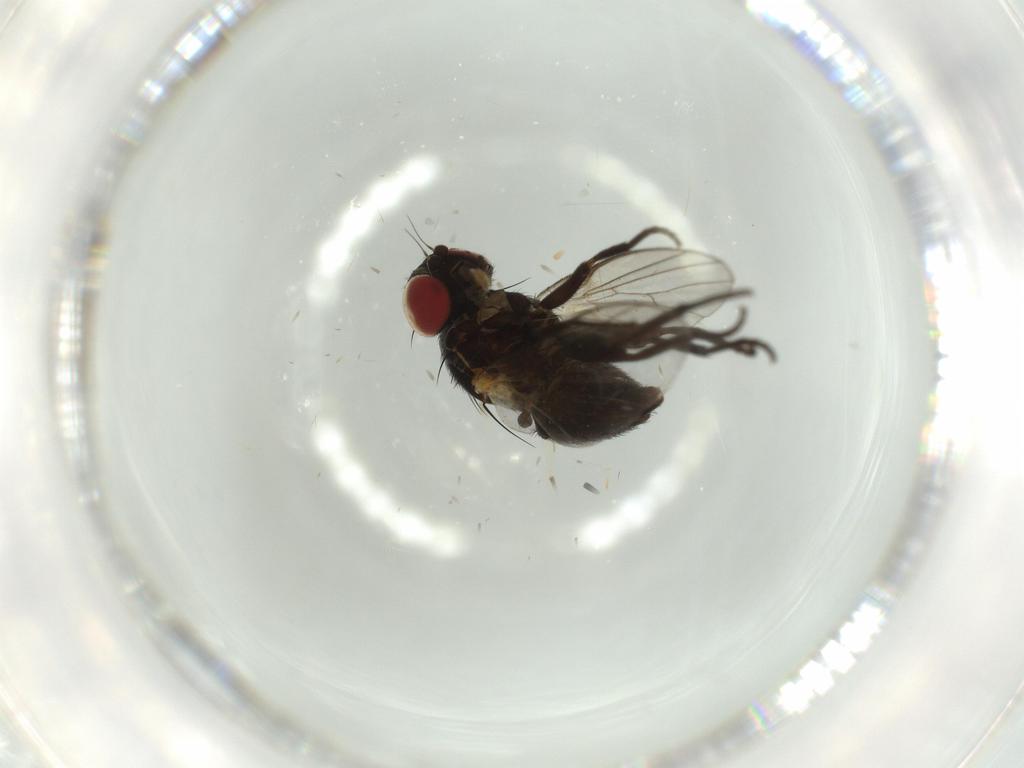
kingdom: Animalia
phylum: Arthropoda
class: Insecta
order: Diptera
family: Agromyzidae
